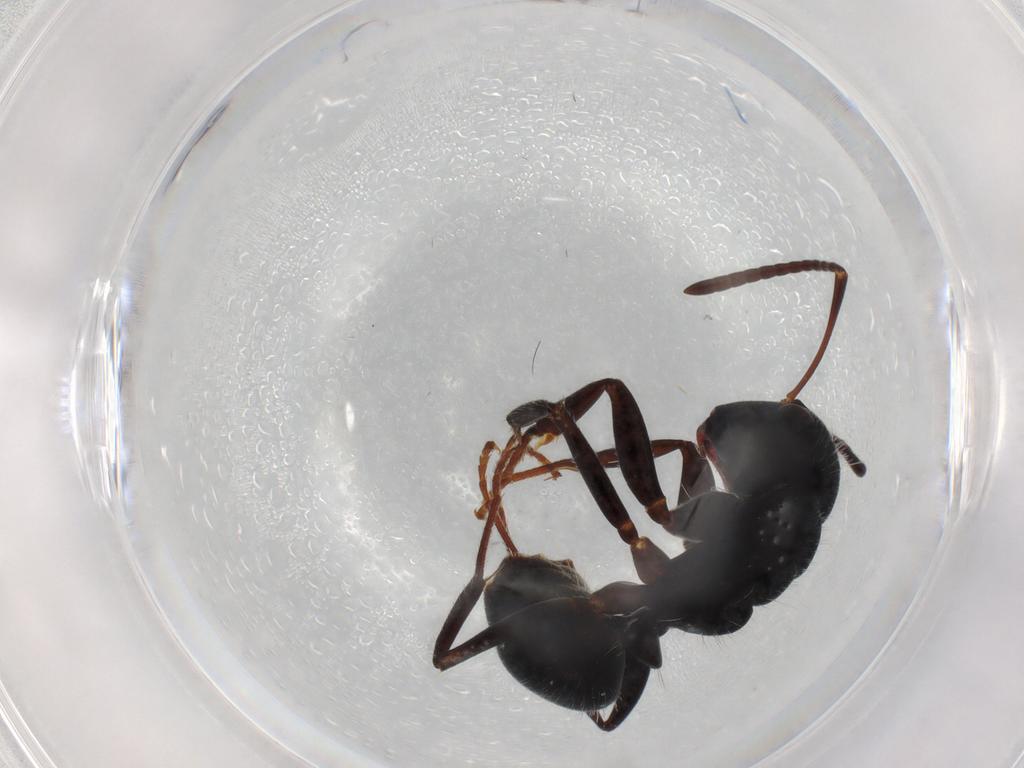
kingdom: Animalia
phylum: Arthropoda
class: Insecta
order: Hymenoptera
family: Formicidae
